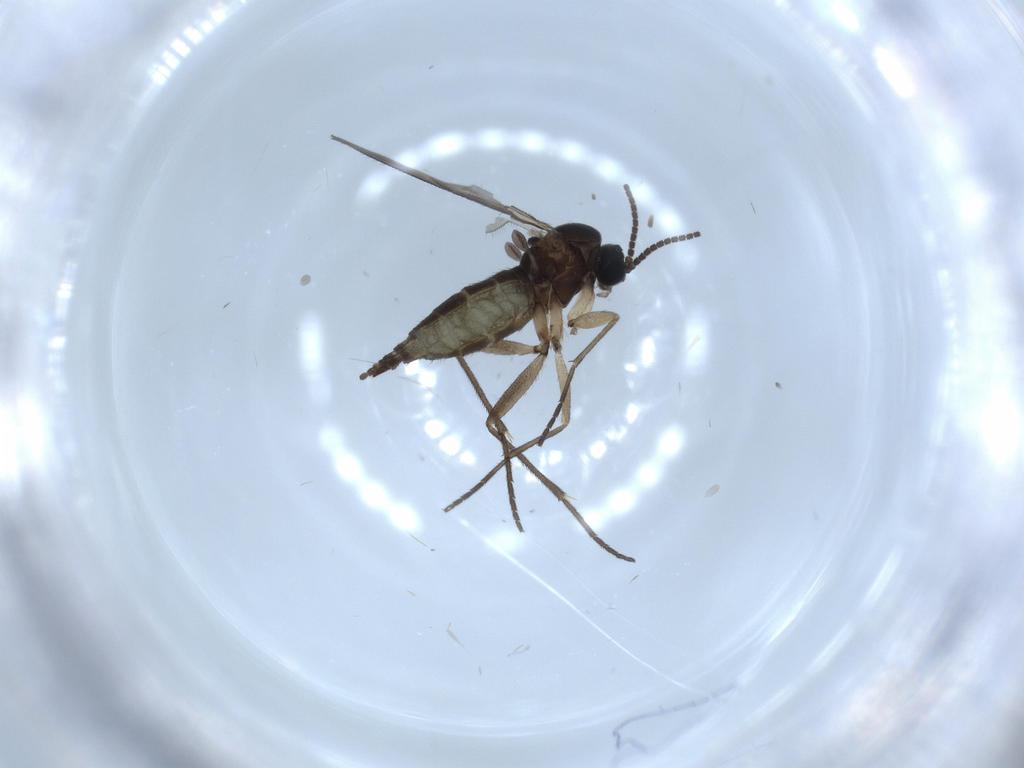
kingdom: Animalia
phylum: Arthropoda
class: Insecta
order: Diptera
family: Sciaridae
